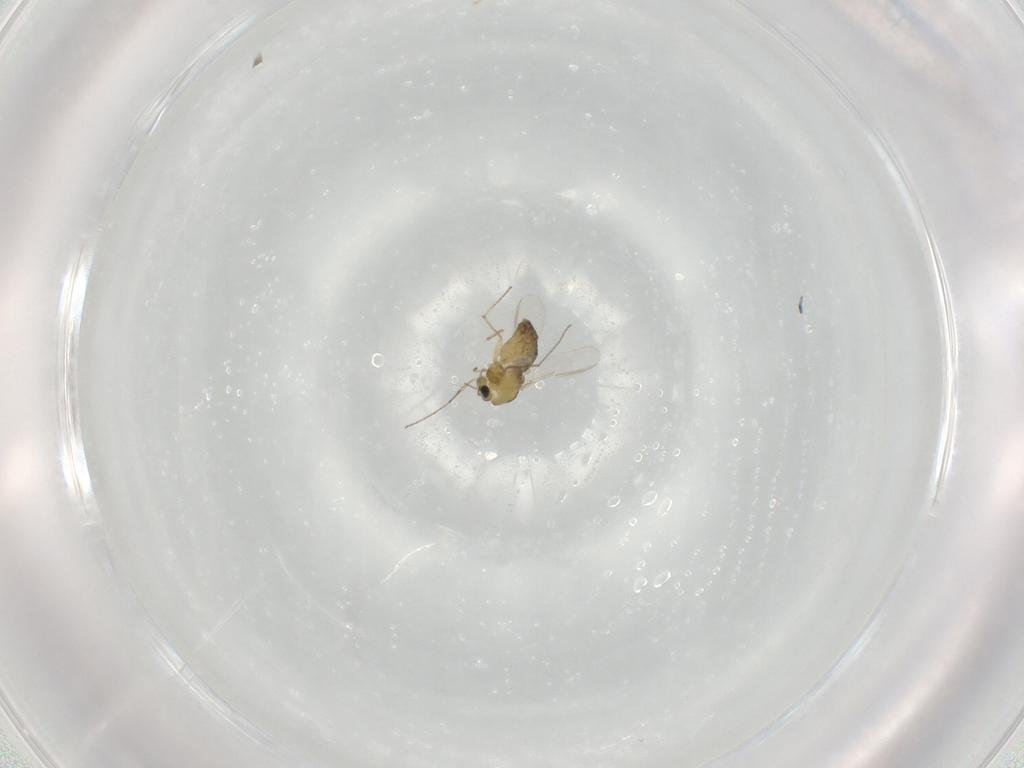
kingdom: Animalia
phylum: Arthropoda
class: Insecta
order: Diptera
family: Chironomidae
